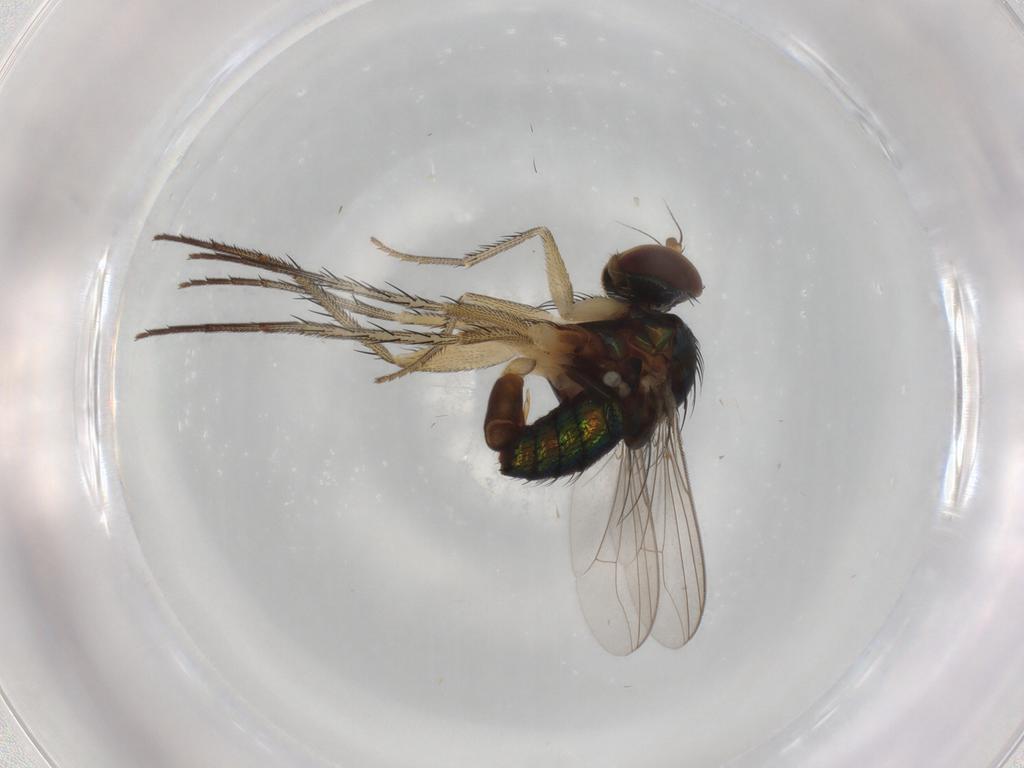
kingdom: Animalia
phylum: Arthropoda
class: Insecta
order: Diptera
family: Dolichopodidae
